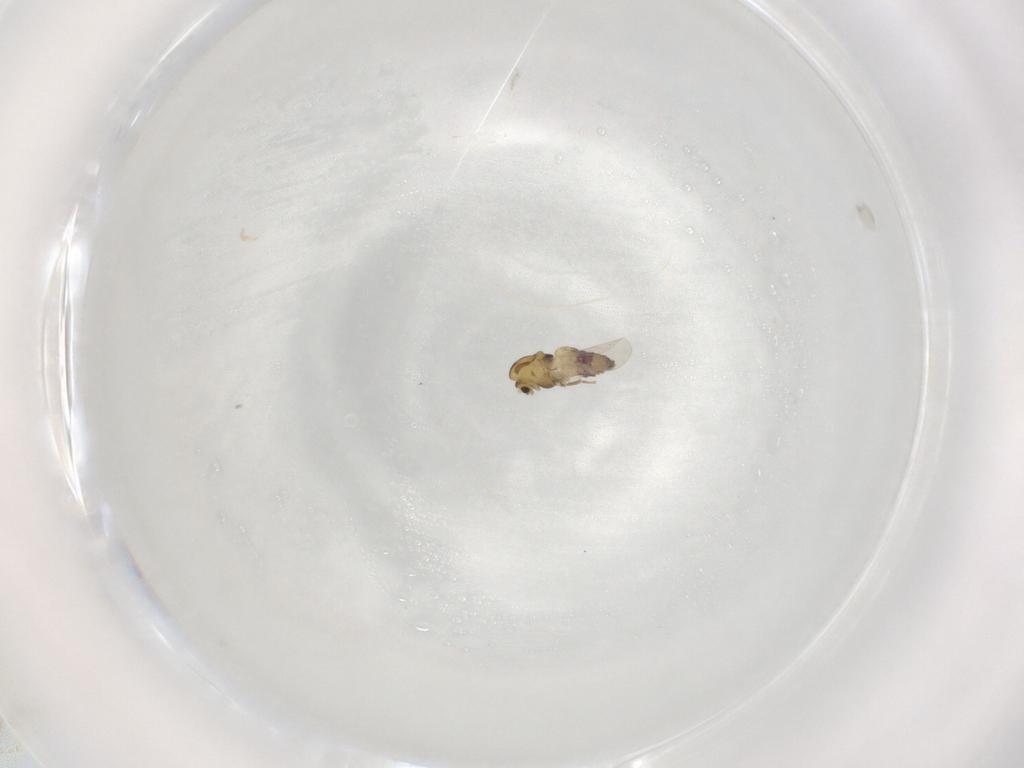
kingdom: Animalia
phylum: Arthropoda
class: Insecta
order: Diptera
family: Chironomidae
